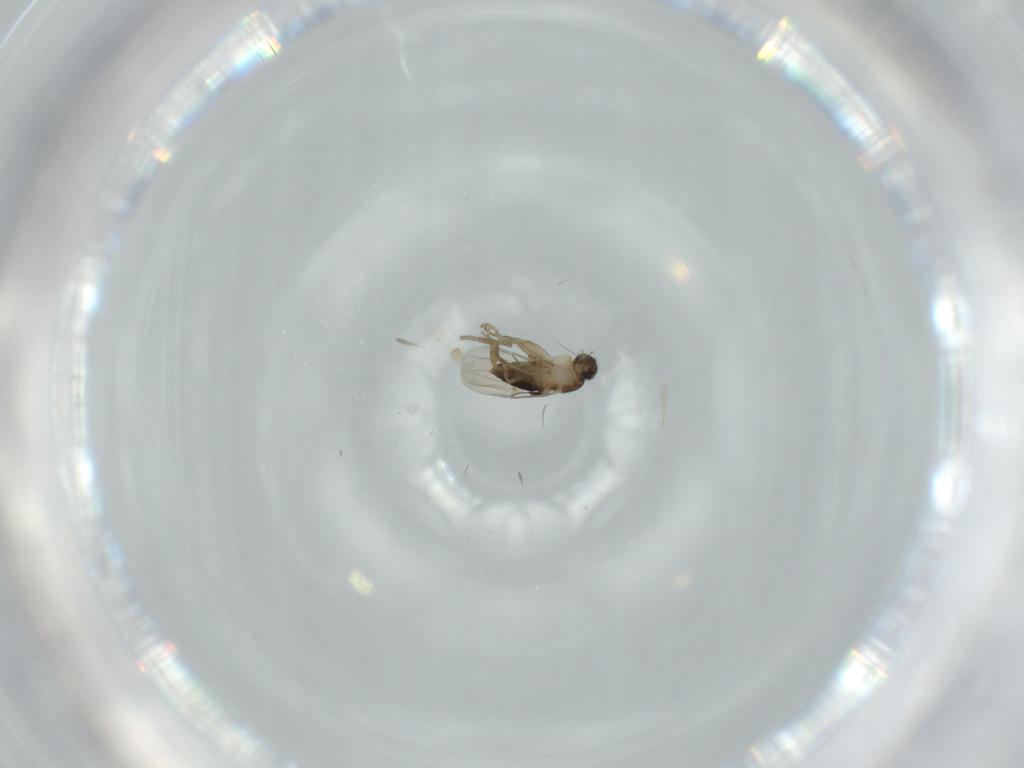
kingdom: Animalia
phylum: Arthropoda
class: Insecta
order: Diptera
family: Phoridae
